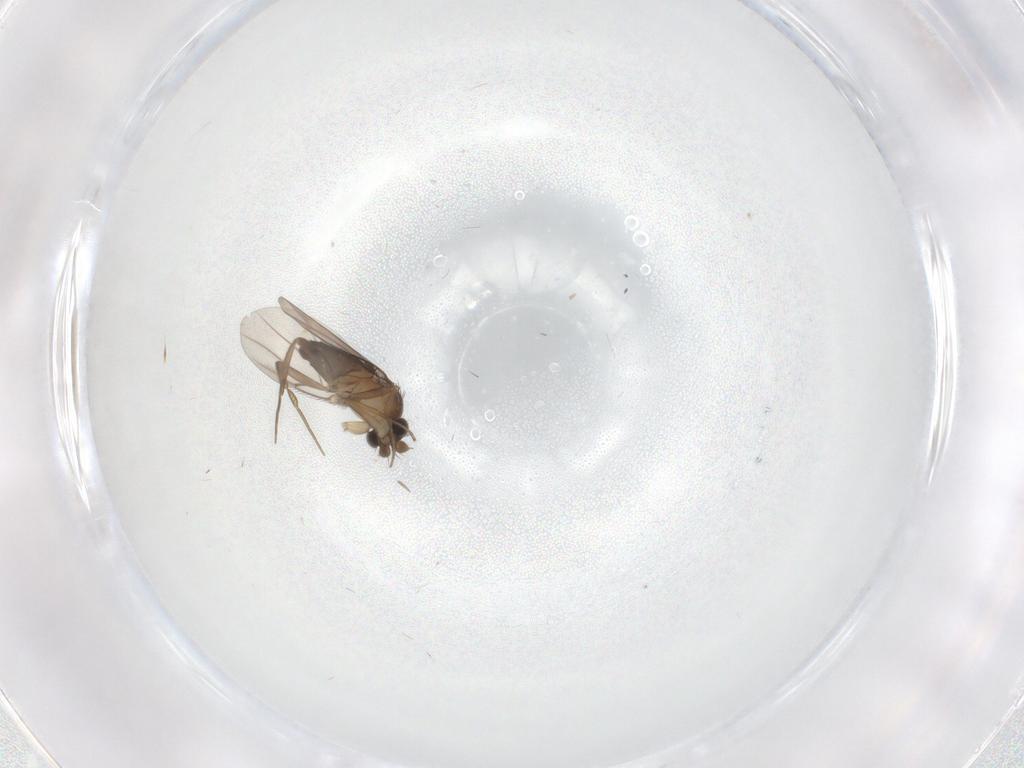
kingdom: Animalia
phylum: Arthropoda
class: Insecta
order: Diptera
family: Phoridae
